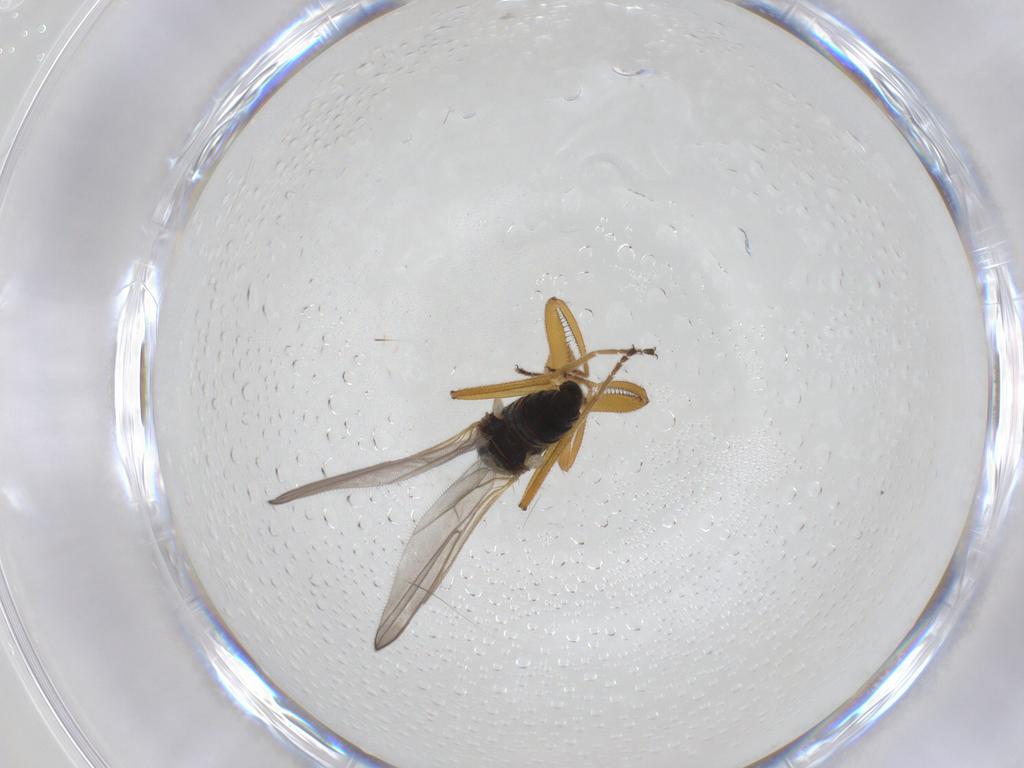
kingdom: Animalia
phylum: Arthropoda
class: Insecta
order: Diptera
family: Hybotidae
